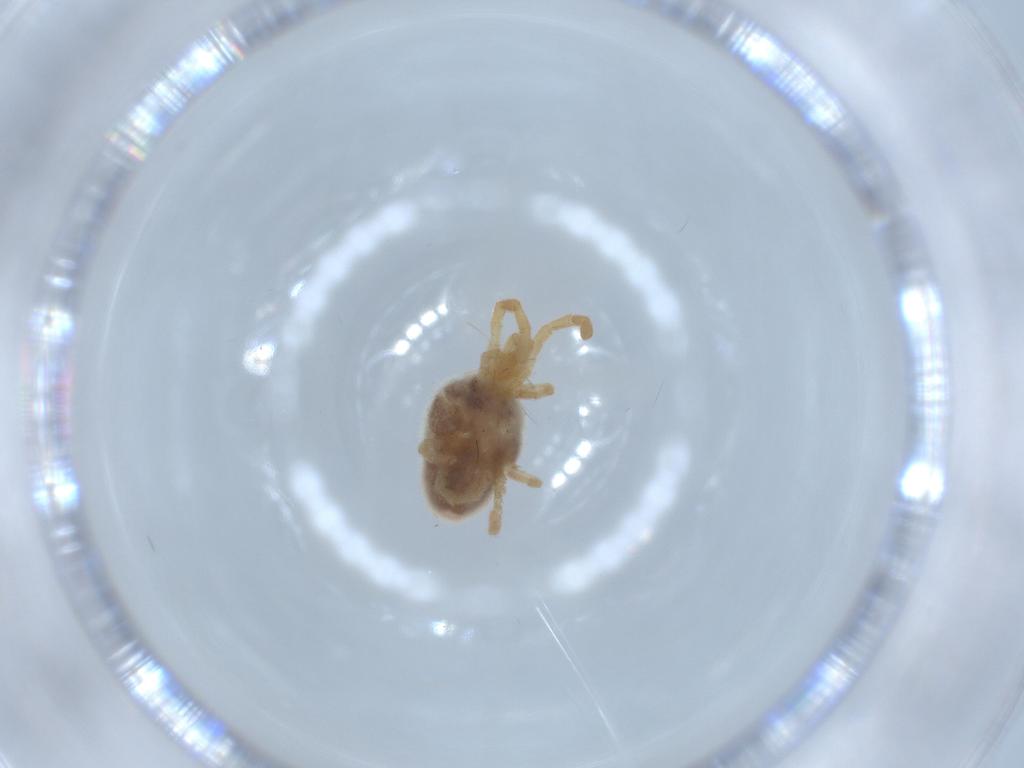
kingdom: Animalia
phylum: Arthropoda
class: Arachnida
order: Trombidiformes
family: Trombidiidae
